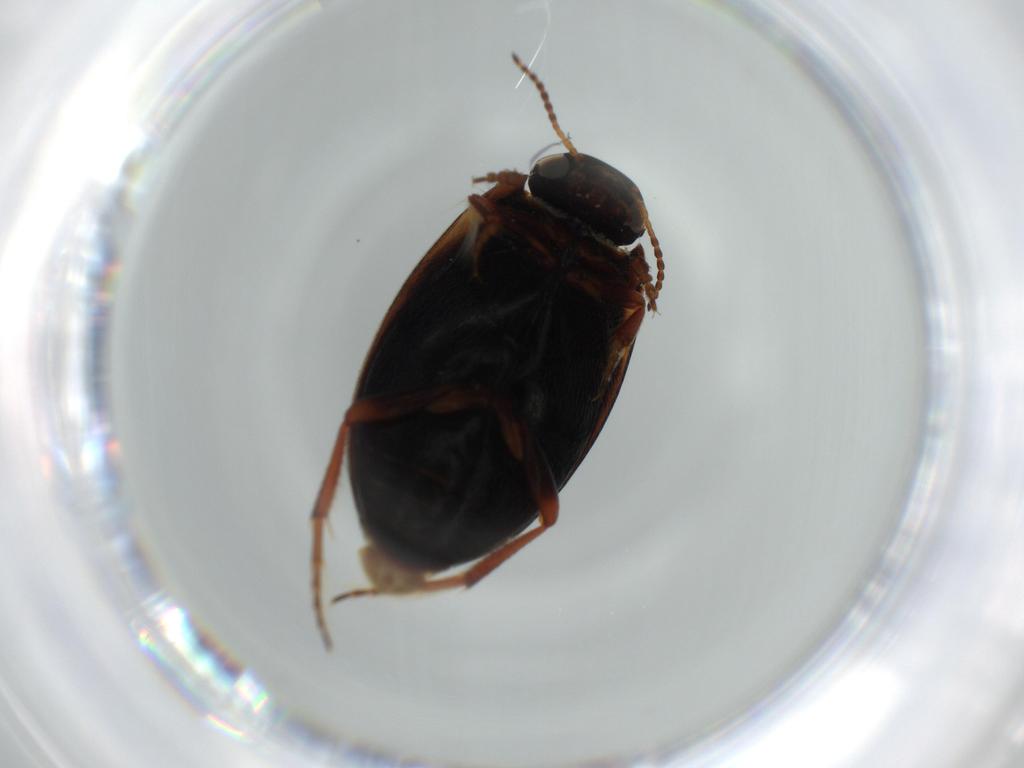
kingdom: Animalia
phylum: Arthropoda
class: Insecta
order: Coleoptera
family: Dytiscidae
